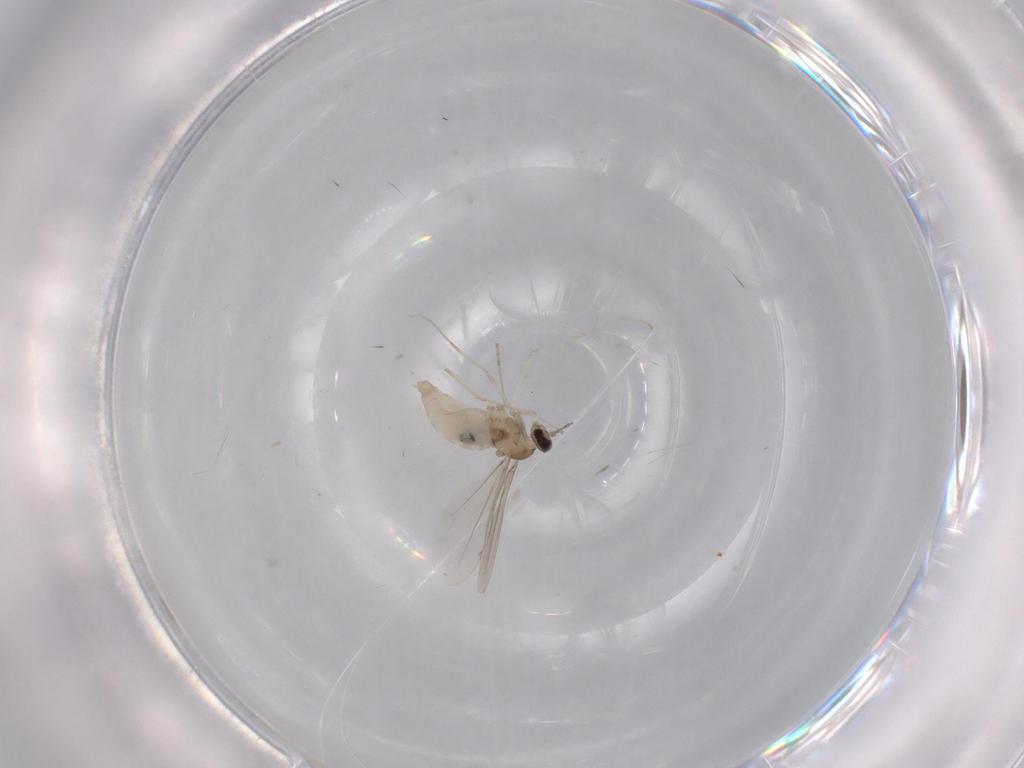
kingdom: Animalia
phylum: Arthropoda
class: Insecta
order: Diptera
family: Cecidomyiidae
